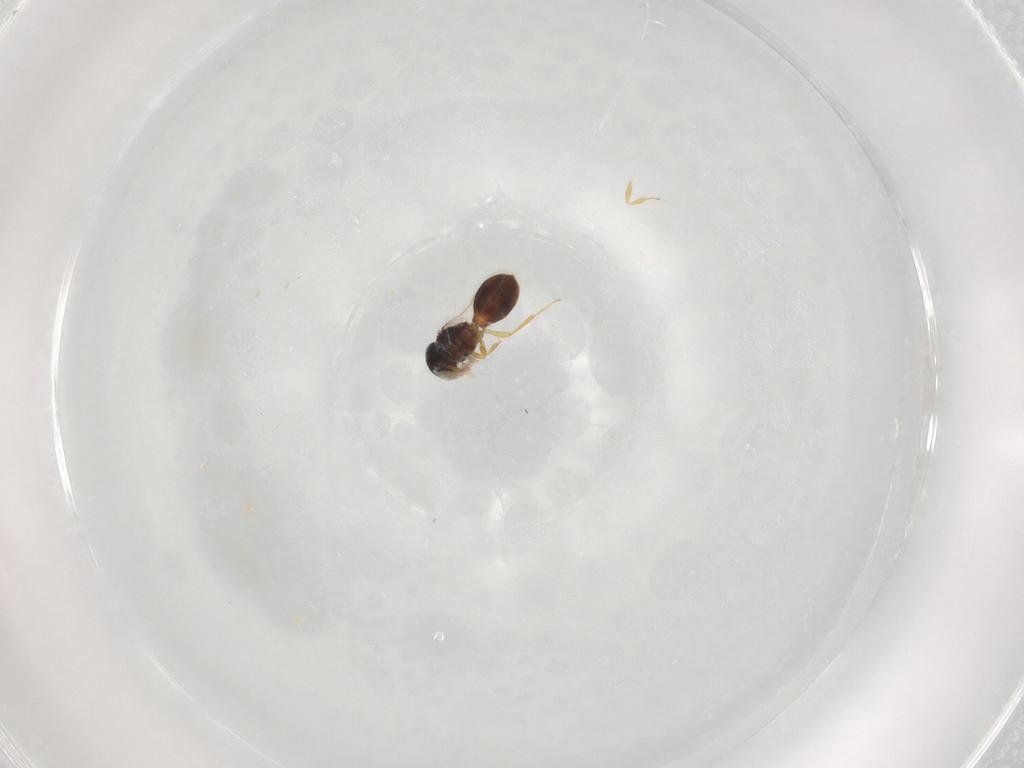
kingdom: Animalia
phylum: Arthropoda
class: Insecta
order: Hymenoptera
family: Scelionidae
